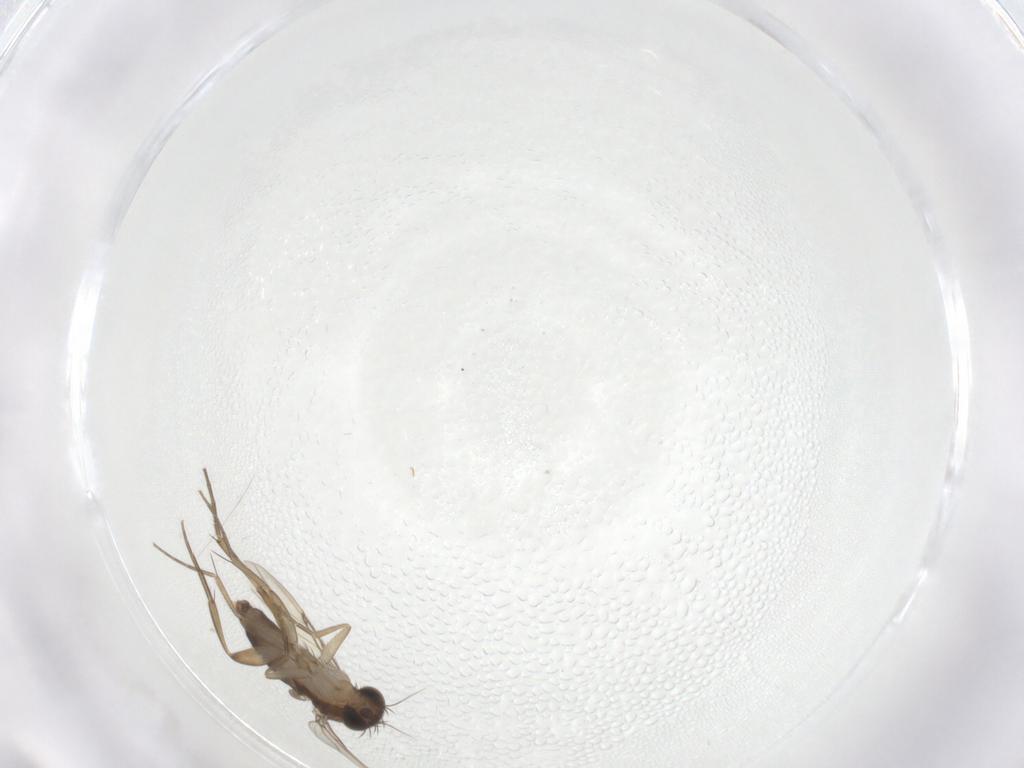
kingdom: Animalia
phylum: Arthropoda
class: Insecta
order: Diptera
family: Phoridae
